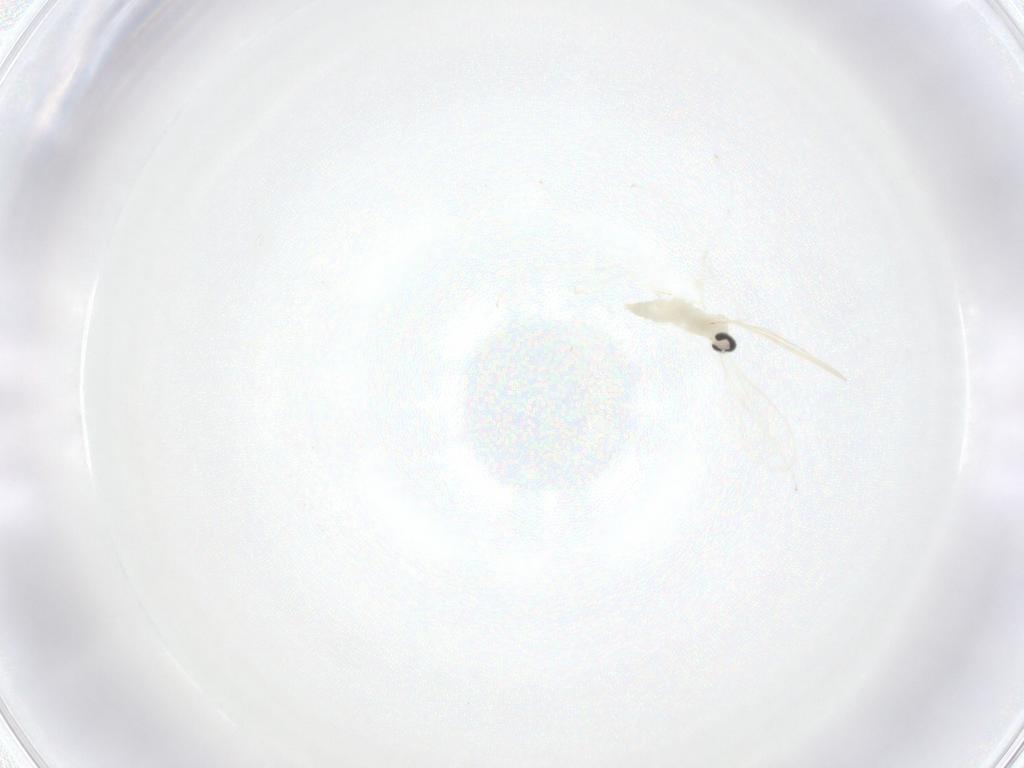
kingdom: Animalia
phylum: Arthropoda
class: Insecta
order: Diptera
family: Cecidomyiidae
